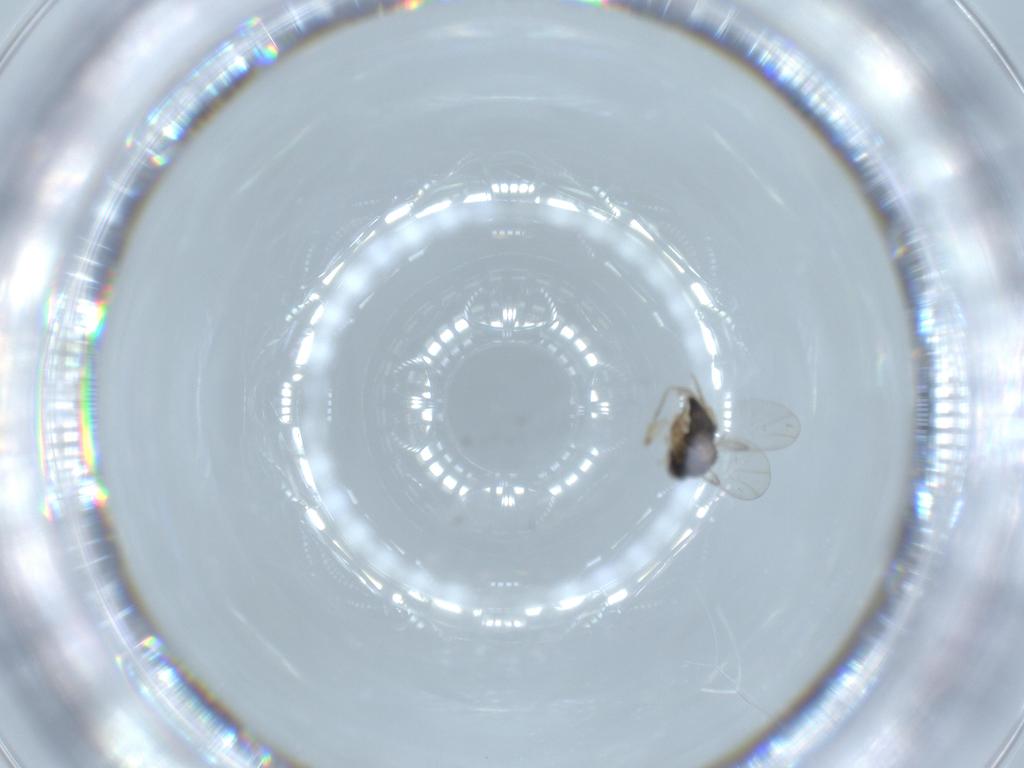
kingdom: Animalia
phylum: Arthropoda
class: Insecta
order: Diptera
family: Phoridae
